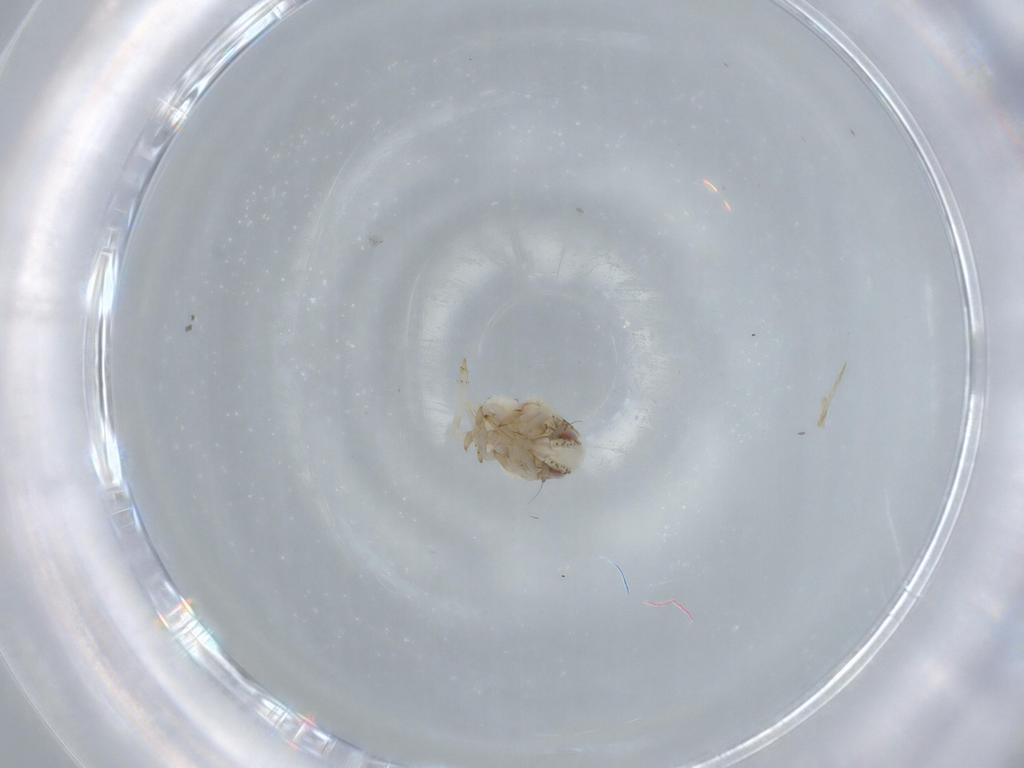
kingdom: Animalia
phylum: Arthropoda
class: Insecta
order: Hemiptera
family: Acanaloniidae
